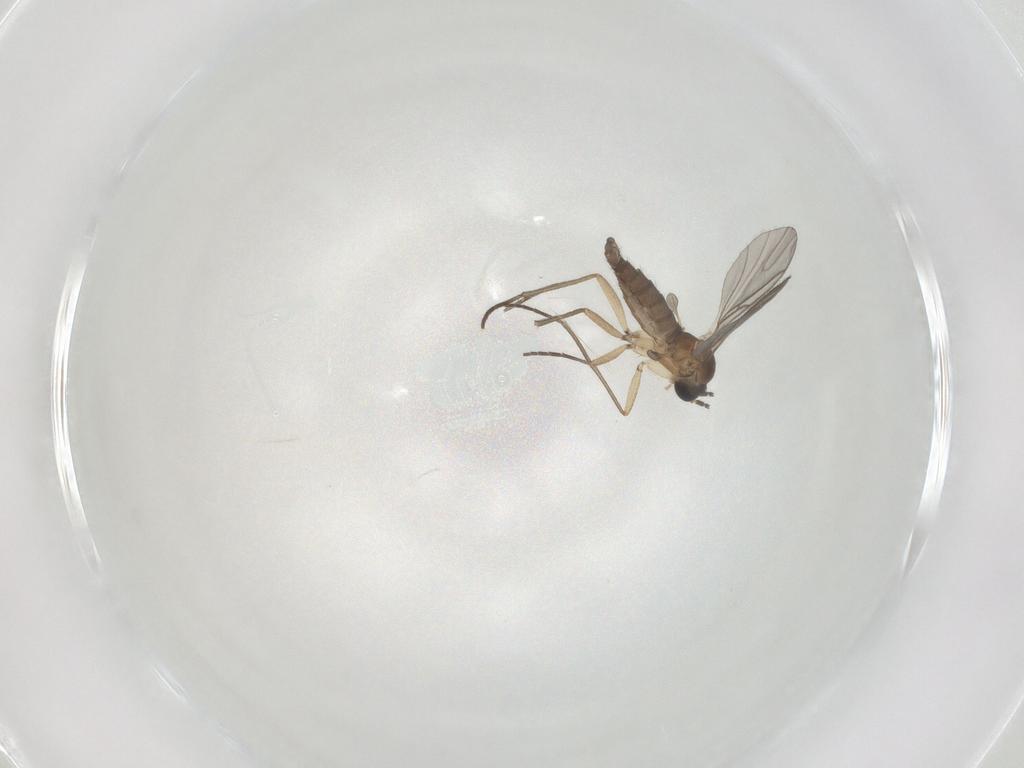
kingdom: Animalia
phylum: Arthropoda
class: Insecta
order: Diptera
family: Sciaridae
